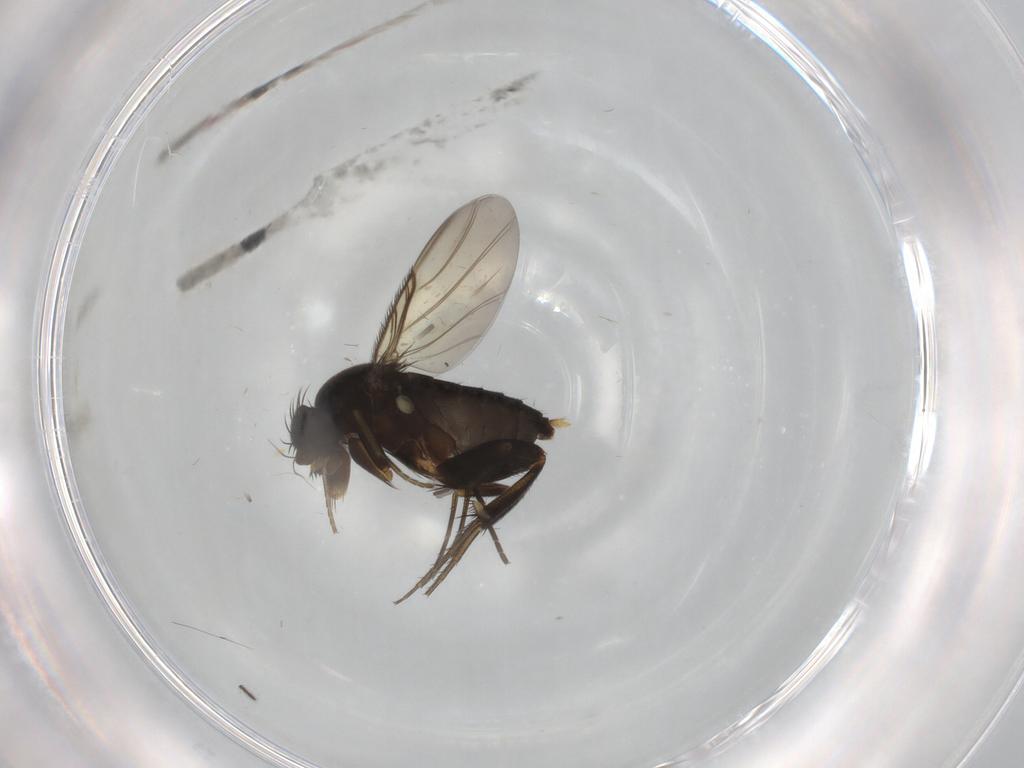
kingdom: Animalia
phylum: Arthropoda
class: Insecta
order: Diptera
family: Phoridae
